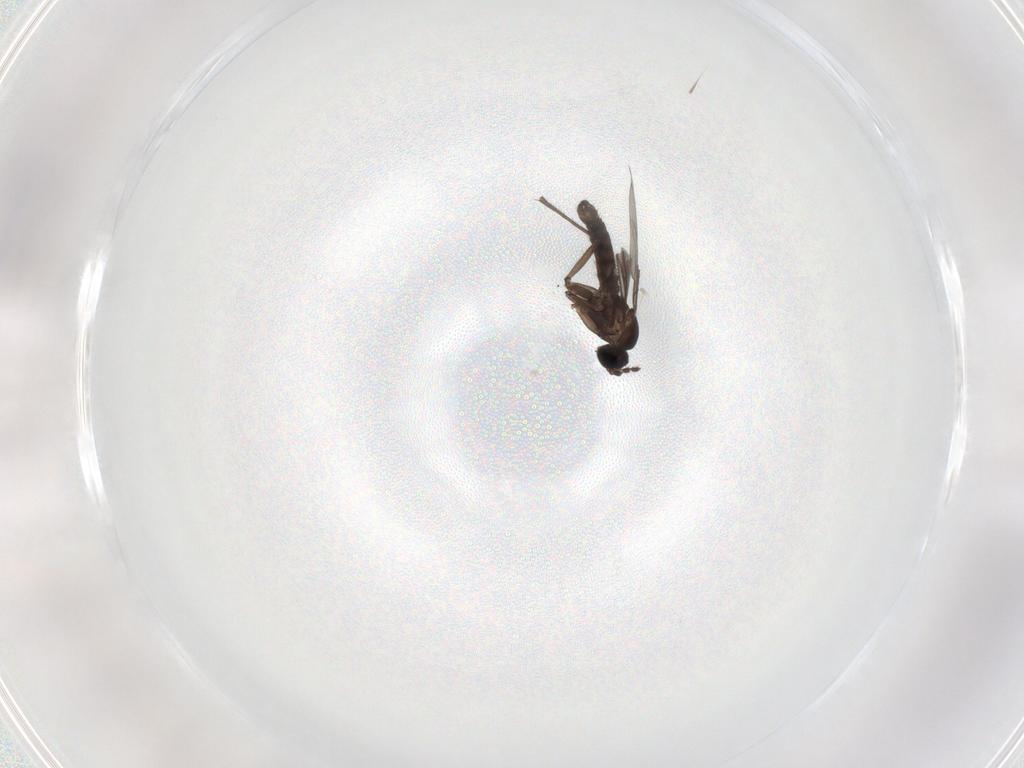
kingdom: Animalia
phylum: Arthropoda
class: Insecta
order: Diptera
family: Sciaridae
